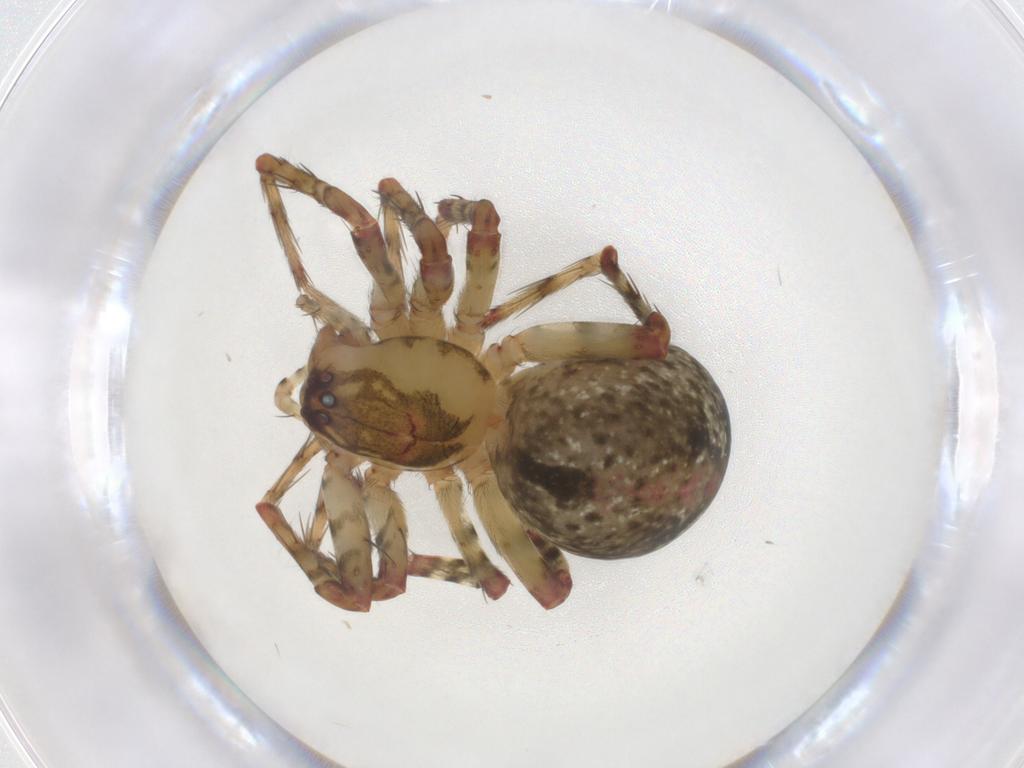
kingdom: Animalia
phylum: Arthropoda
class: Arachnida
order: Araneae
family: Theridiidae
